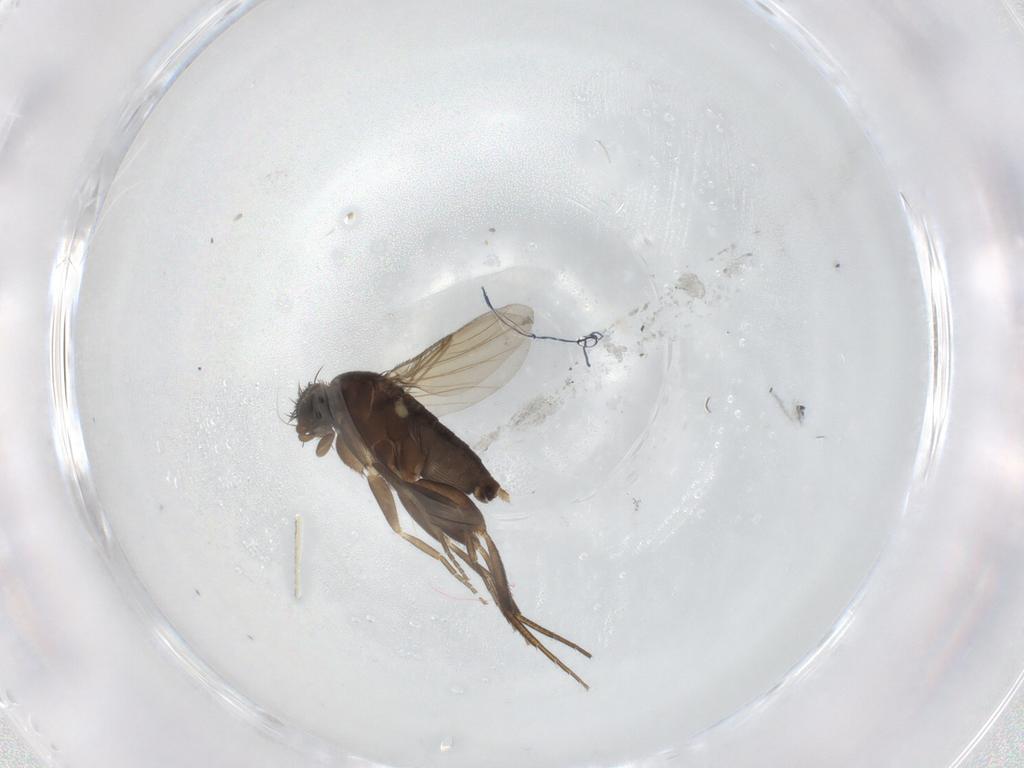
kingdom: Animalia
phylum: Arthropoda
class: Insecta
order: Diptera
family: Phoridae
